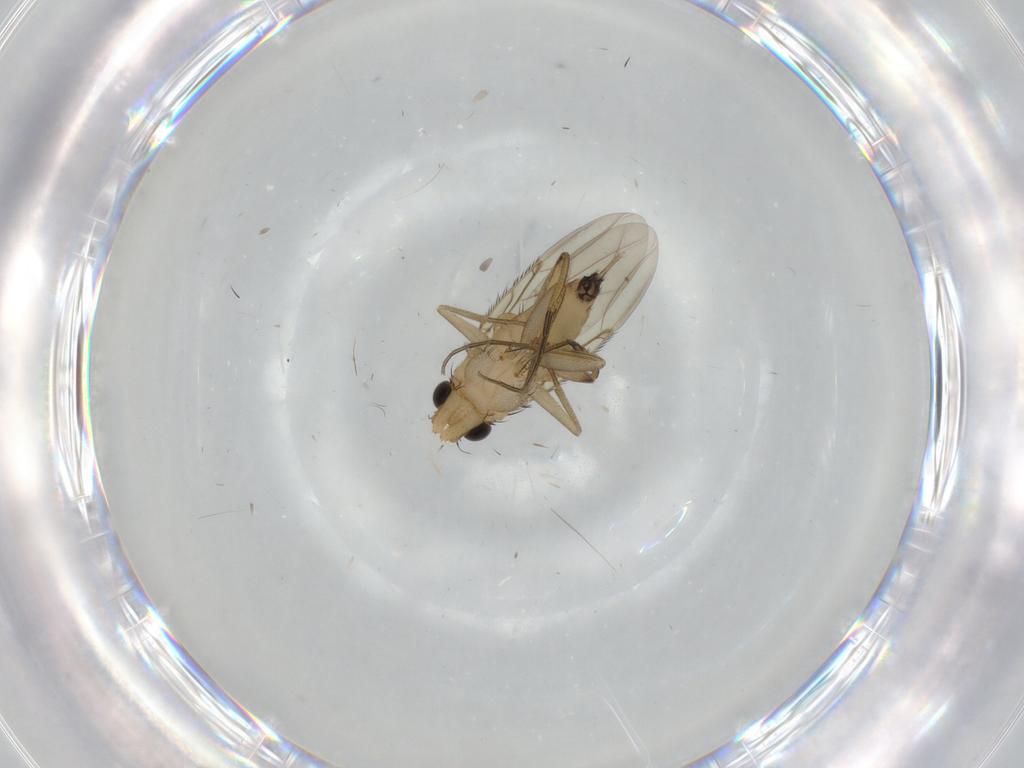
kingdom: Animalia
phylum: Arthropoda
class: Insecta
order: Diptera
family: Phoridae
